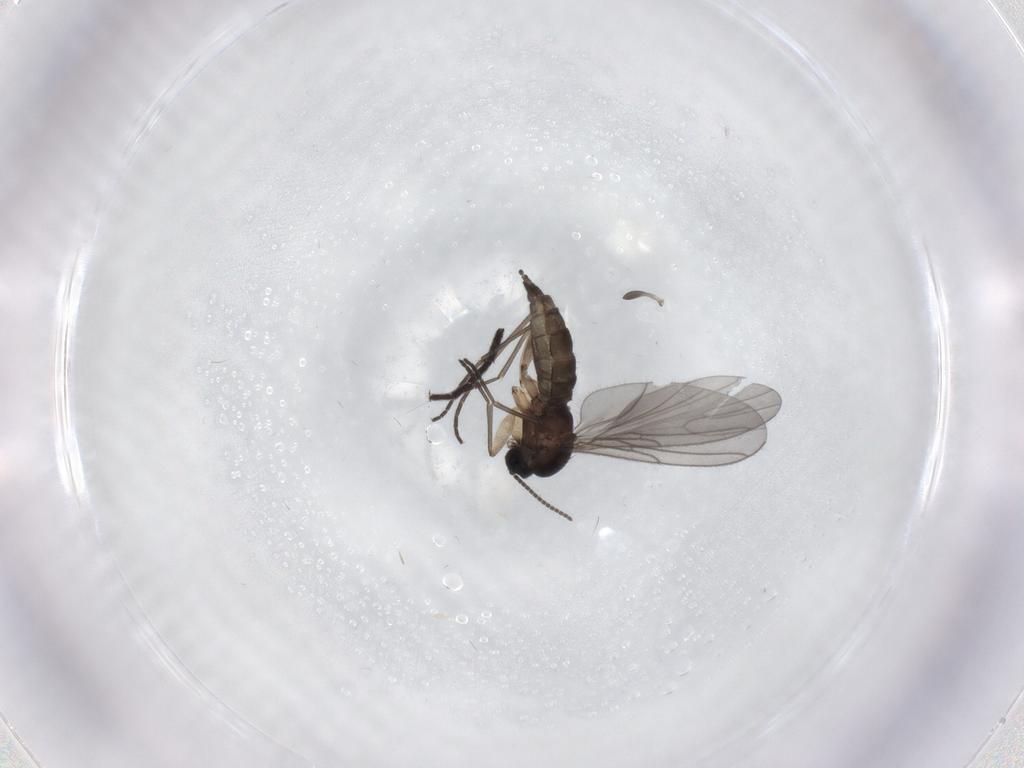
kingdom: Animalia
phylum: Arthropoda
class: Insecta
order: Diptera
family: Sciaridae
